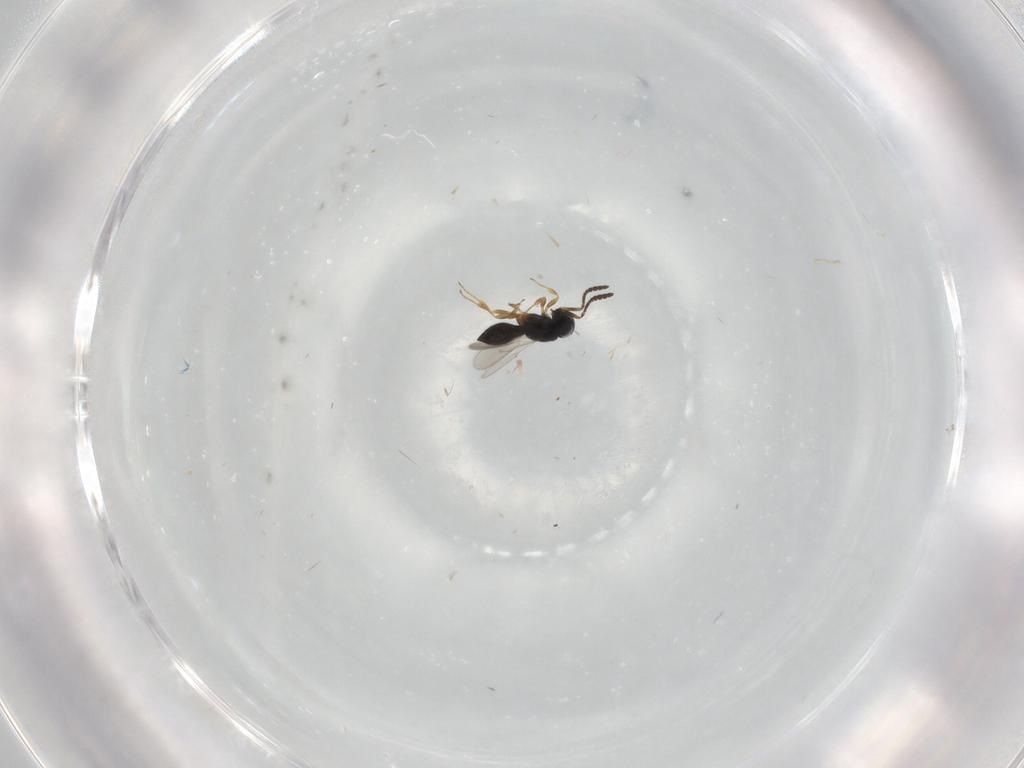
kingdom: Animalia
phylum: Arthropoda
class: Insecta
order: Hymenoptera
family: Scelionidae
